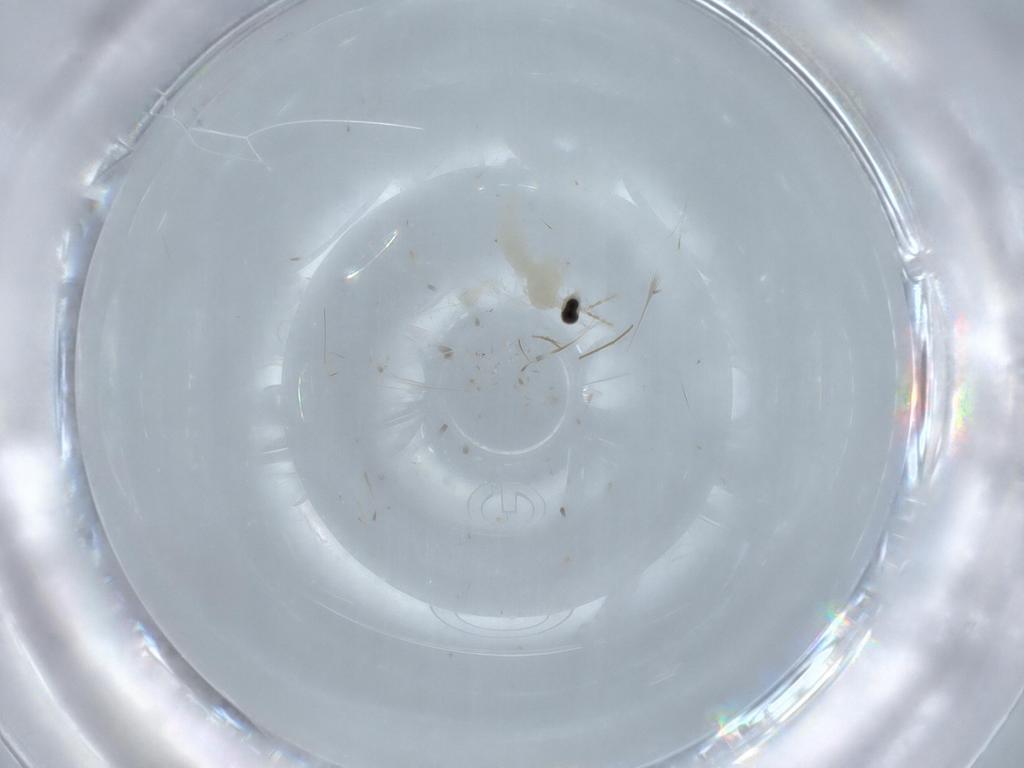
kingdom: Animalia
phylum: Arthropoda
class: Insecta
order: Diptera
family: Cecidomyiidae
